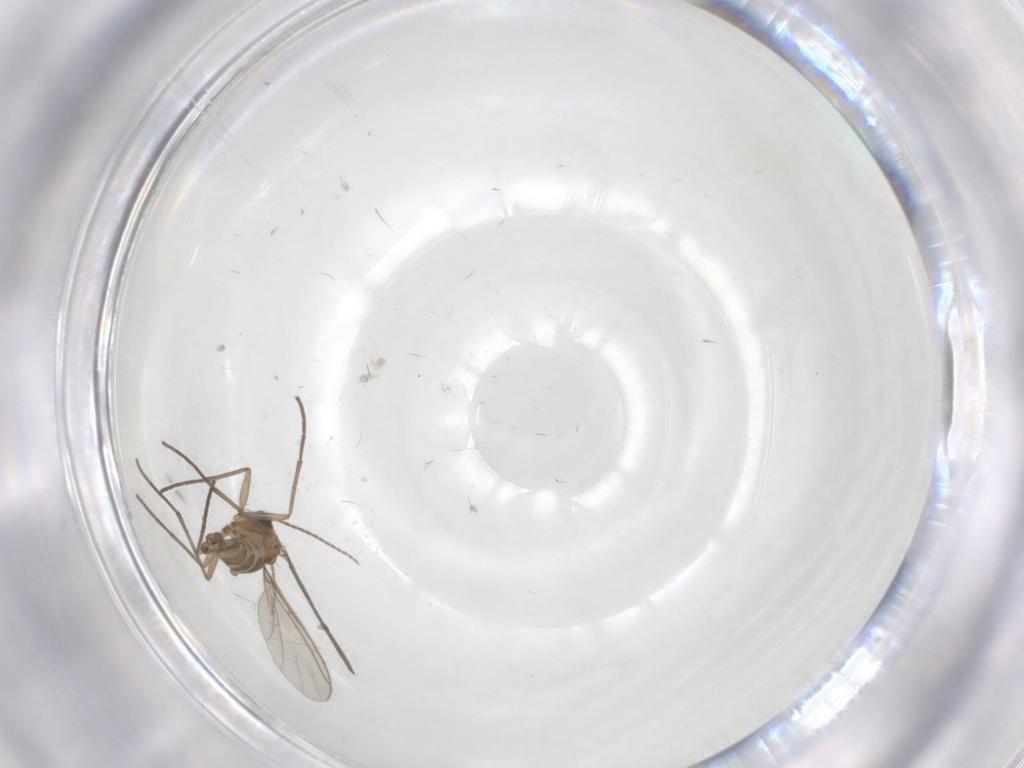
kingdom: Animalia
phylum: Arthropoda
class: Insecta
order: Diptera
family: Sciaridae
